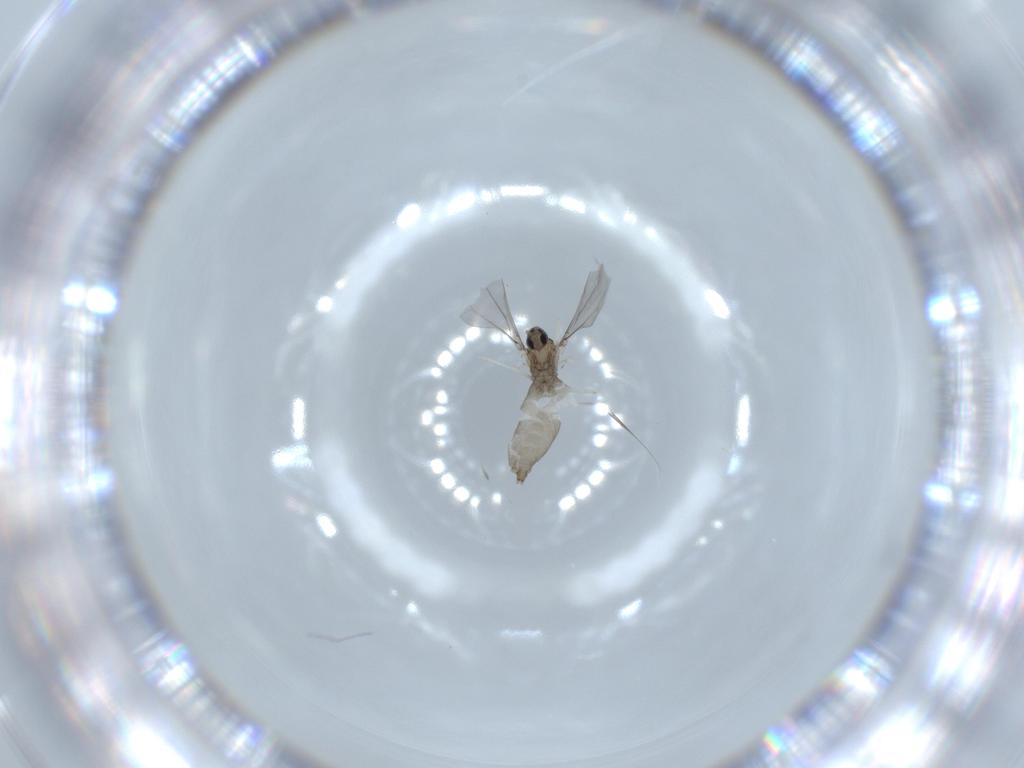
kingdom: Animalia
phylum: Arthropoda
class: Insecta
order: Diptera
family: Cecidomyiidae
